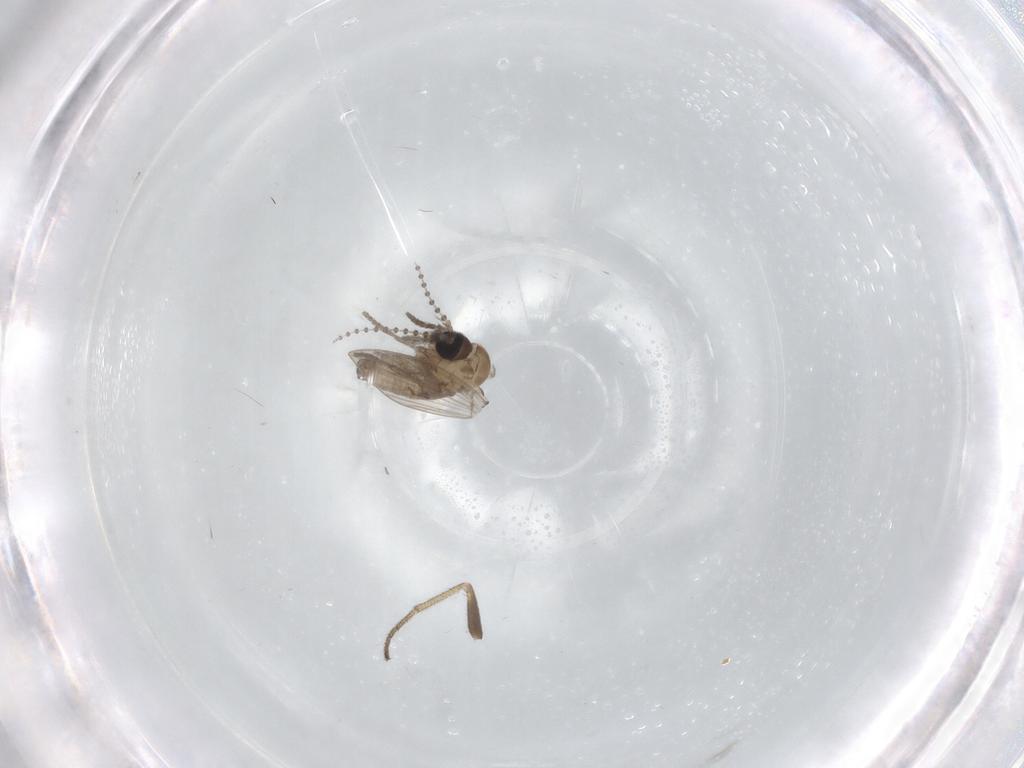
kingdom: Animalia
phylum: Arthropoda
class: Insecta
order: Diptera
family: Psychodidae
